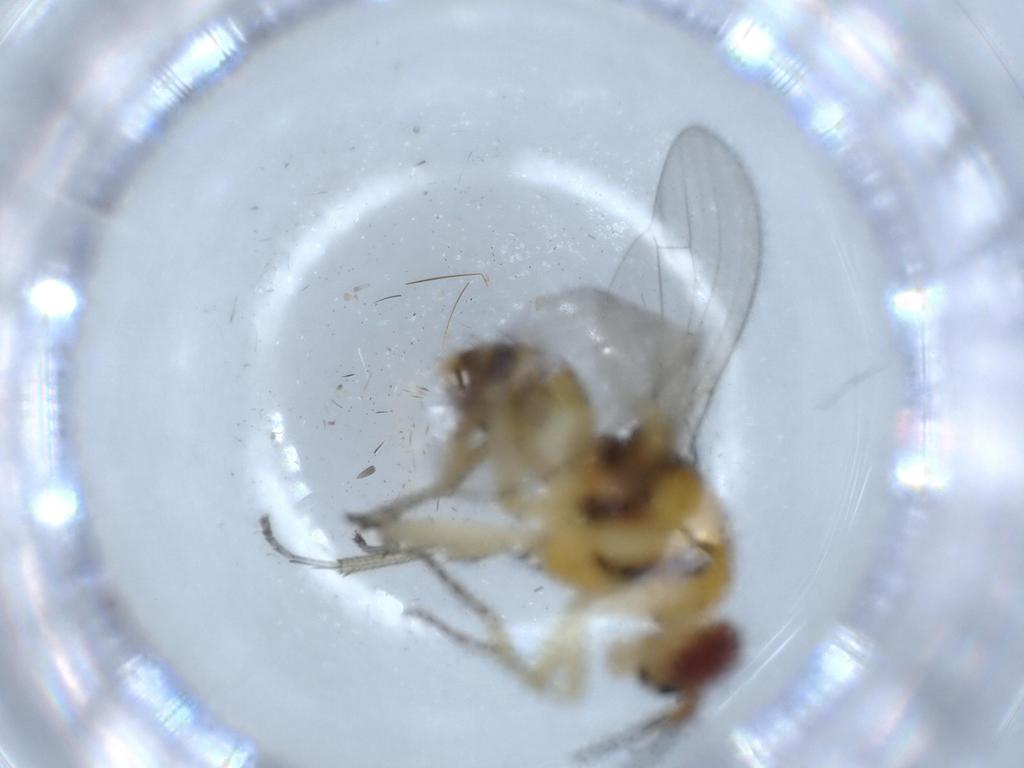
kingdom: Animalia
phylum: Arthropoda
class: Insecta
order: Diptera
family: Lauxaniidae
